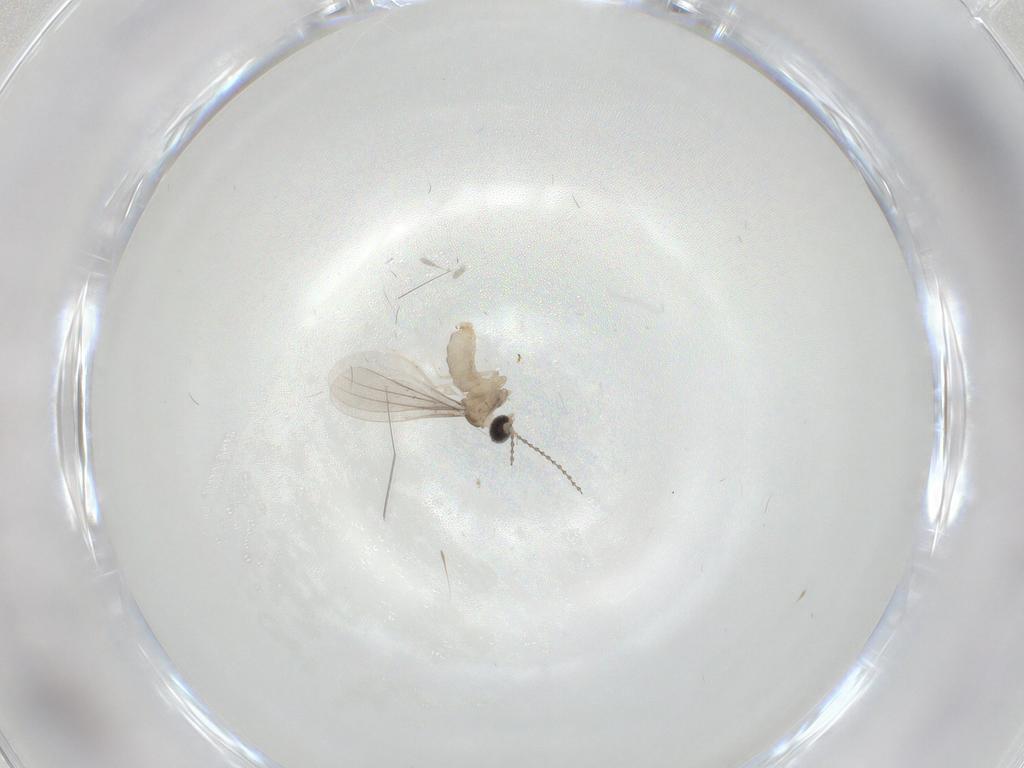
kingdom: Animalia
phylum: Arthropoda
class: Insecta
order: Diptera
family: Cecidomyiidae
